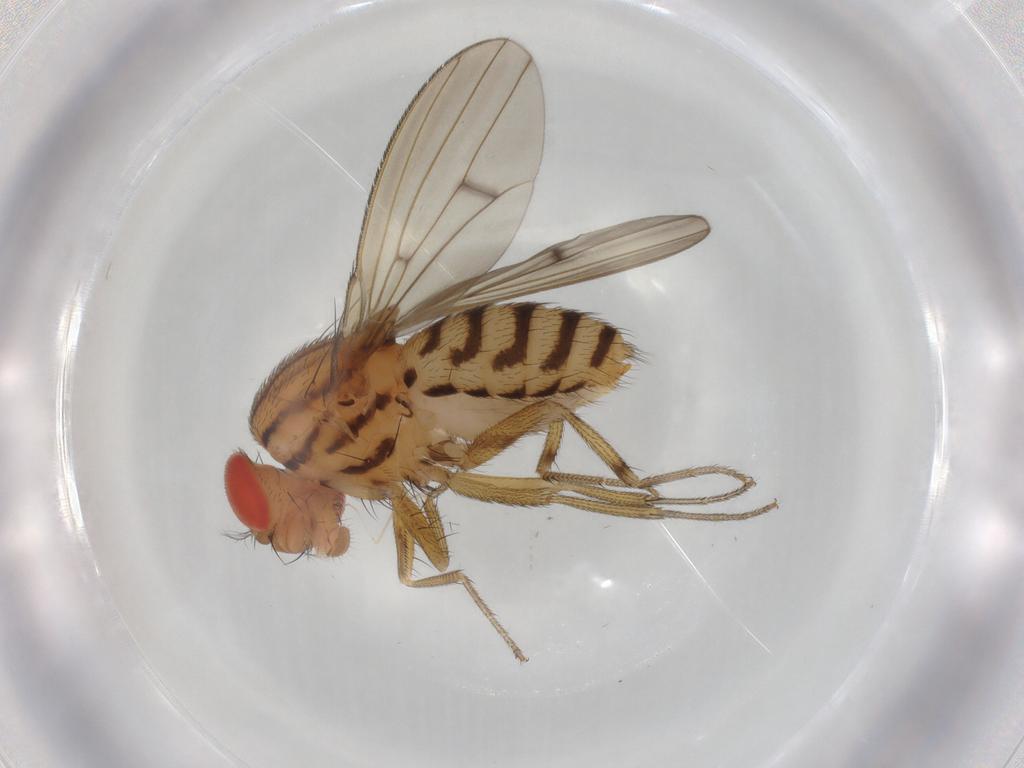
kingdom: Animalia
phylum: Arthropoda
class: Insecta
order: Diptera
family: Drosophilidae
